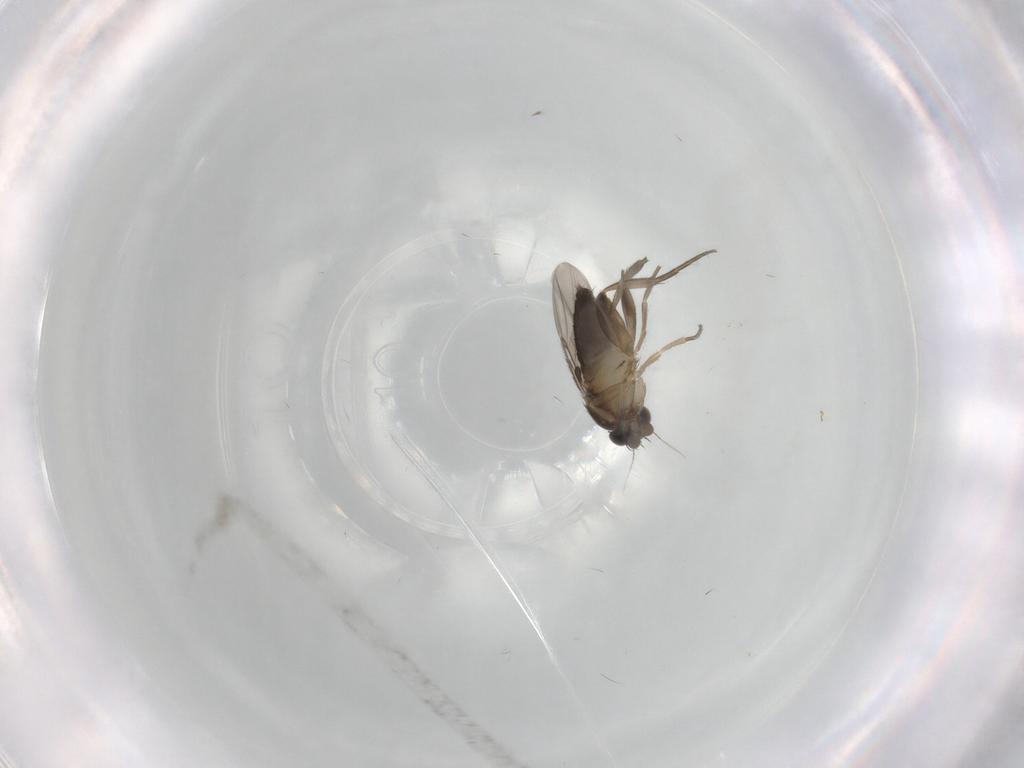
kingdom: Animalia
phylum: Arthropoda
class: Insecta
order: Diptera
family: Phoridae
